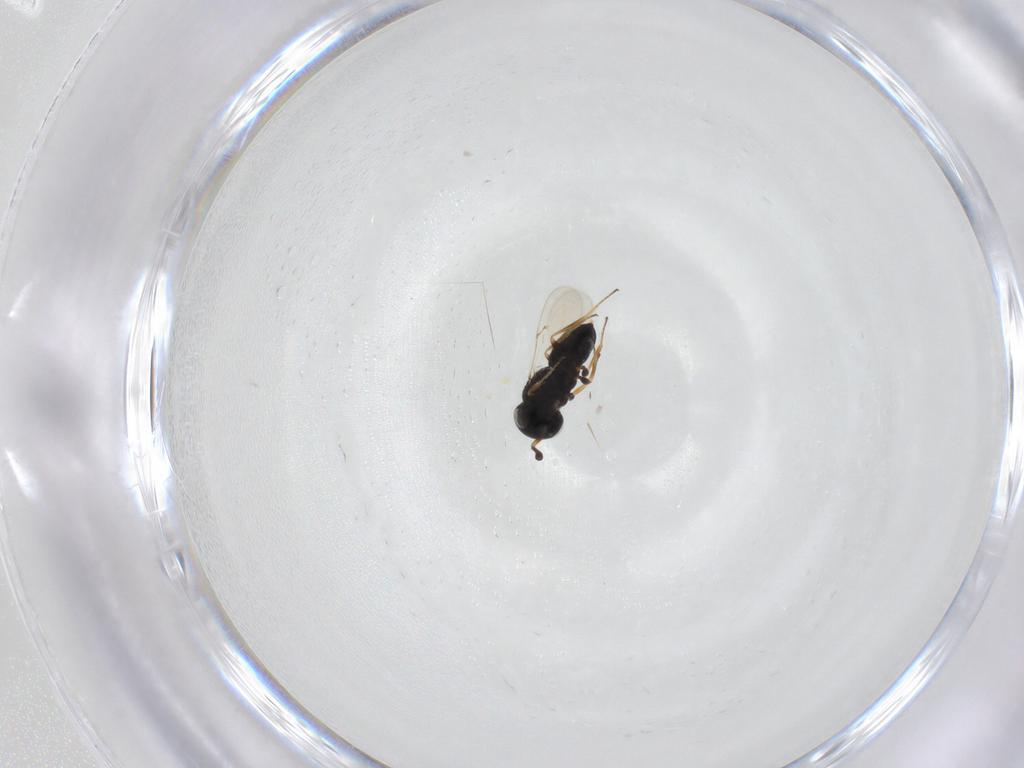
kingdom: Animalia
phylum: Arthropoda
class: Insecta
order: Hymenoptera
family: Scelionidae
